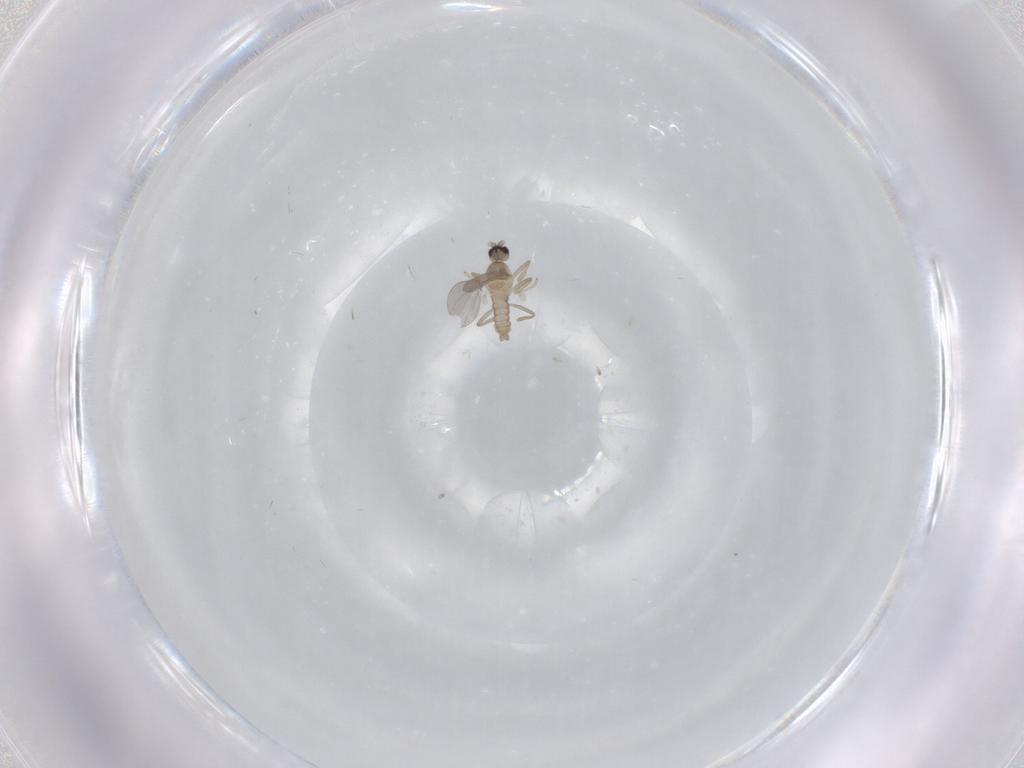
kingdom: Animalia
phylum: Arthropoda
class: Insecta
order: Diptera
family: Cecidomyiidae
